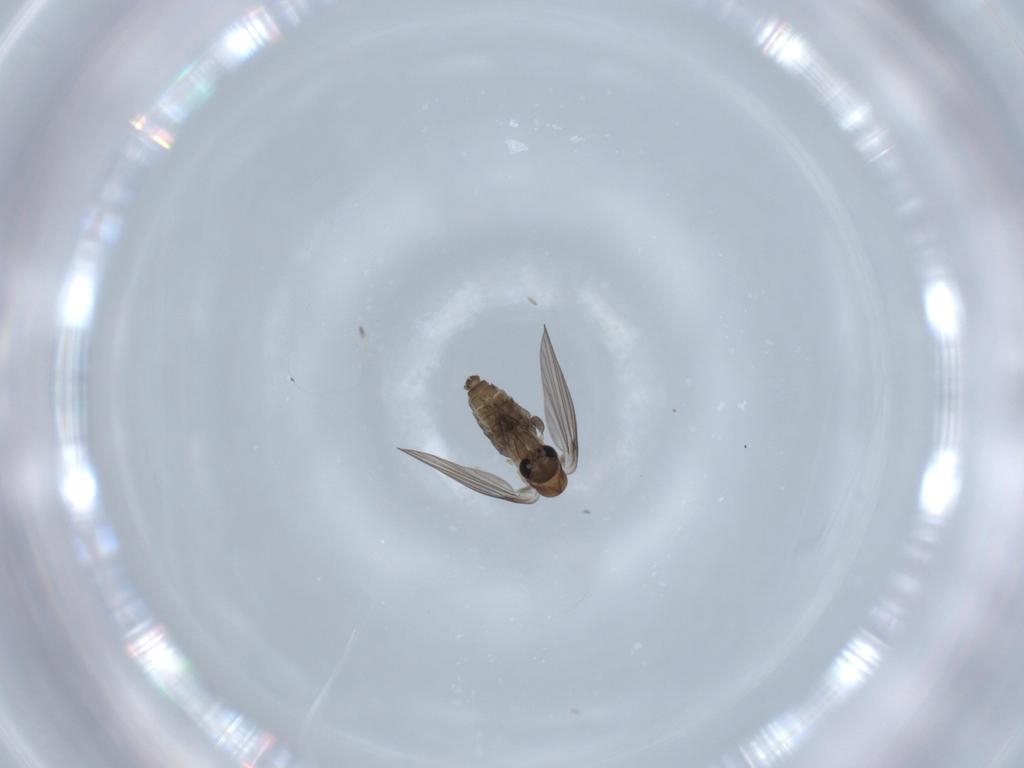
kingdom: Animalia
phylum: Arthropoda
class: Insecta
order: Diptera
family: Psychodidae
